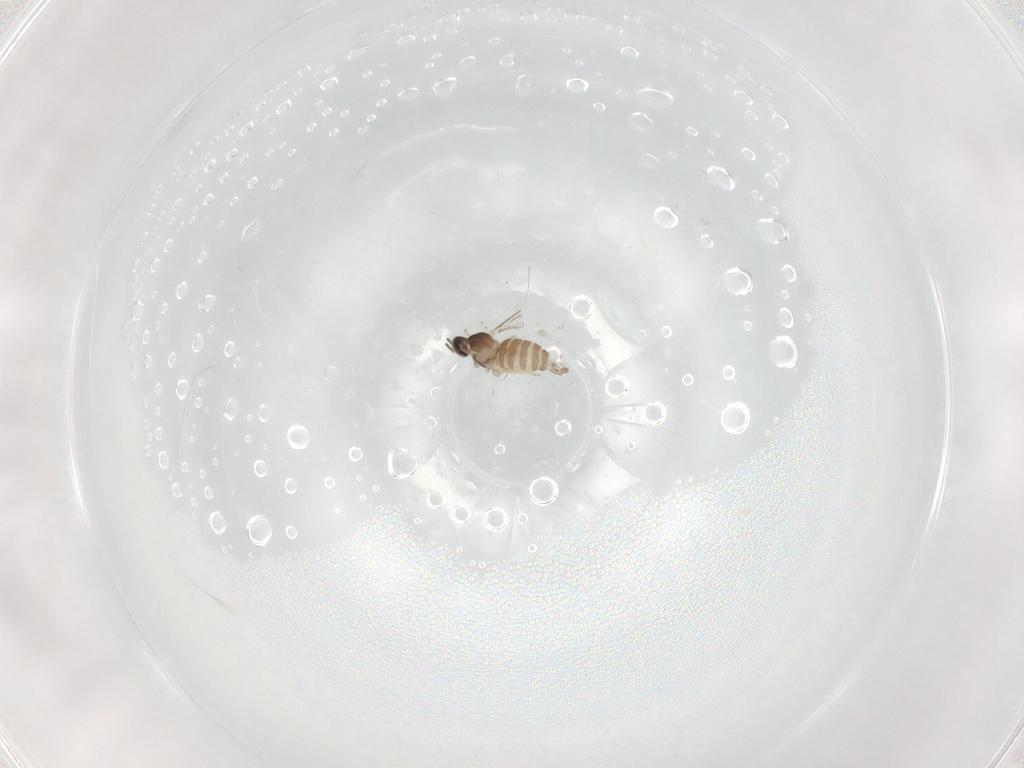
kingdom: Animalia
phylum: Arthropoda
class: Insecta
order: Diptera
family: Cecidomyiidae
